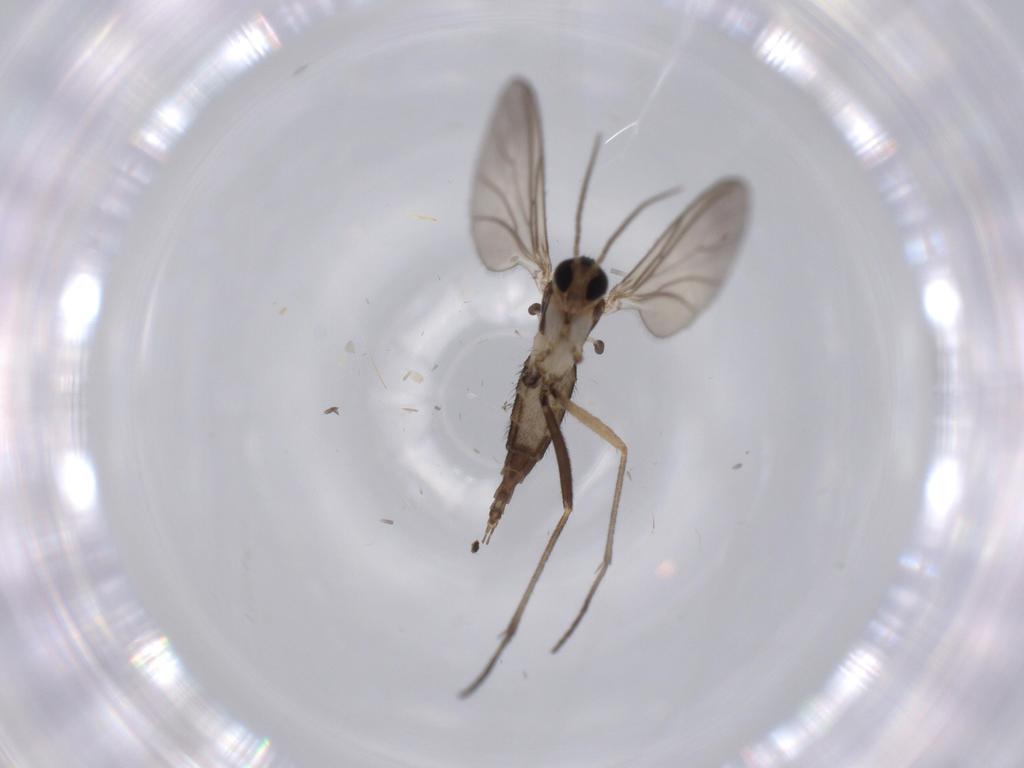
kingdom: Animalia
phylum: Arthropoda
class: Insecta
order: Diptera
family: Sciaridae
